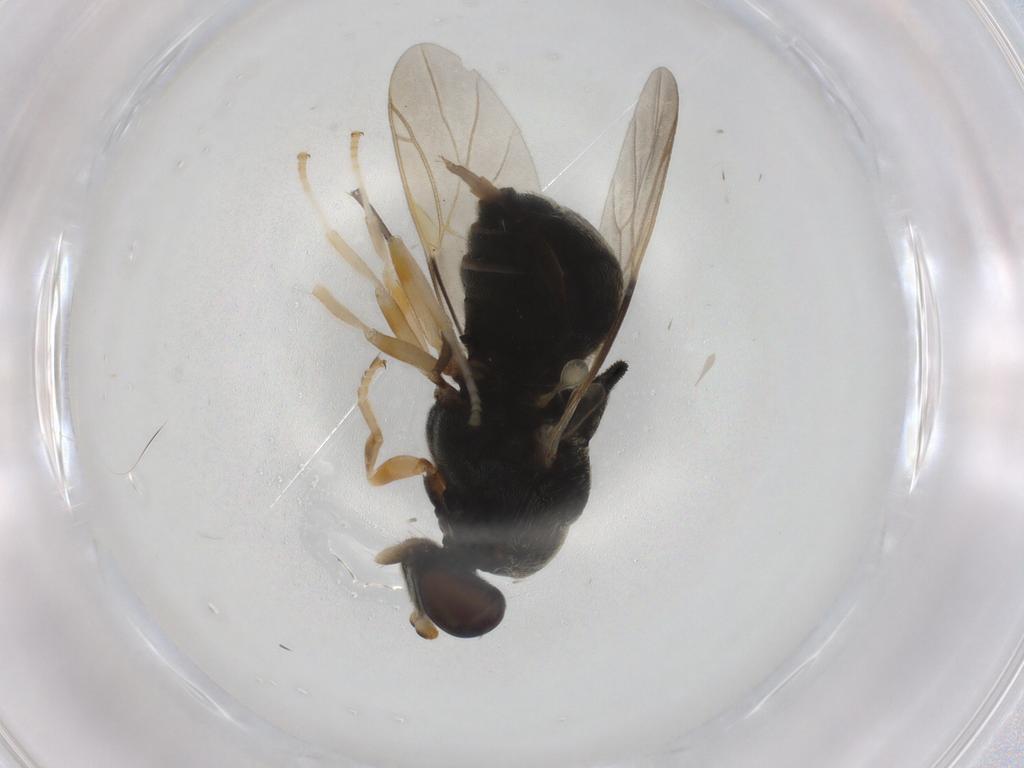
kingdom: Animalia
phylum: Arthropoda
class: Insecta
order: Diptera
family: Stratiomyidae
